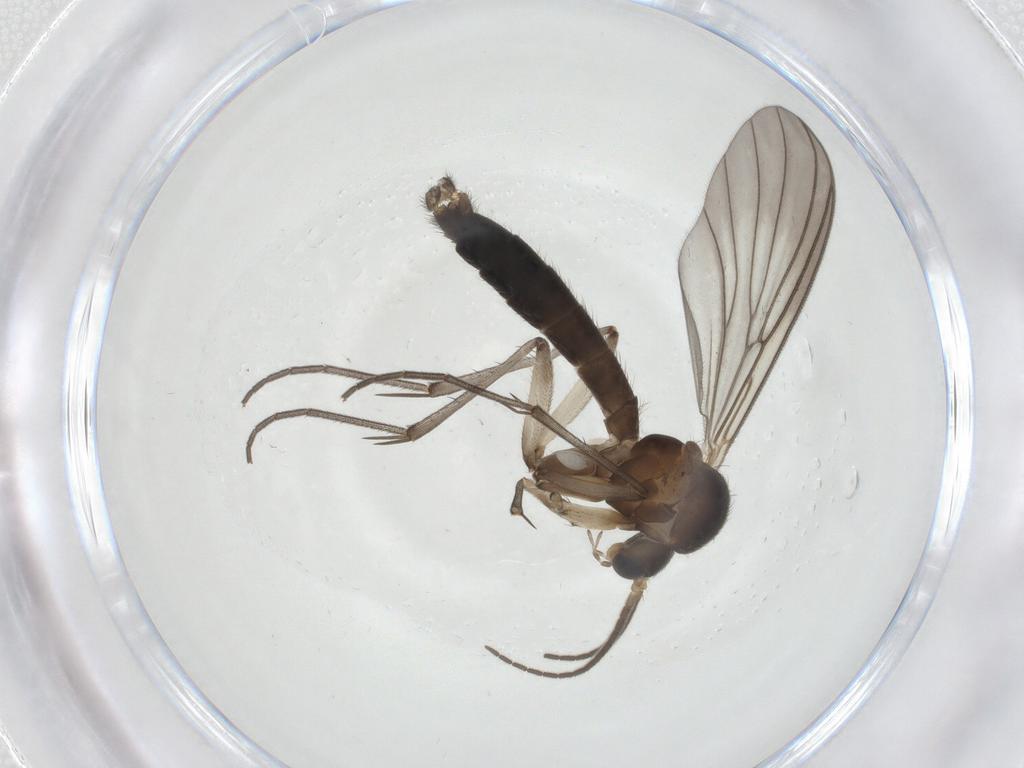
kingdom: Animalia
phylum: Arthropoda
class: Insecta
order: Diptera
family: Mycetophilidae
